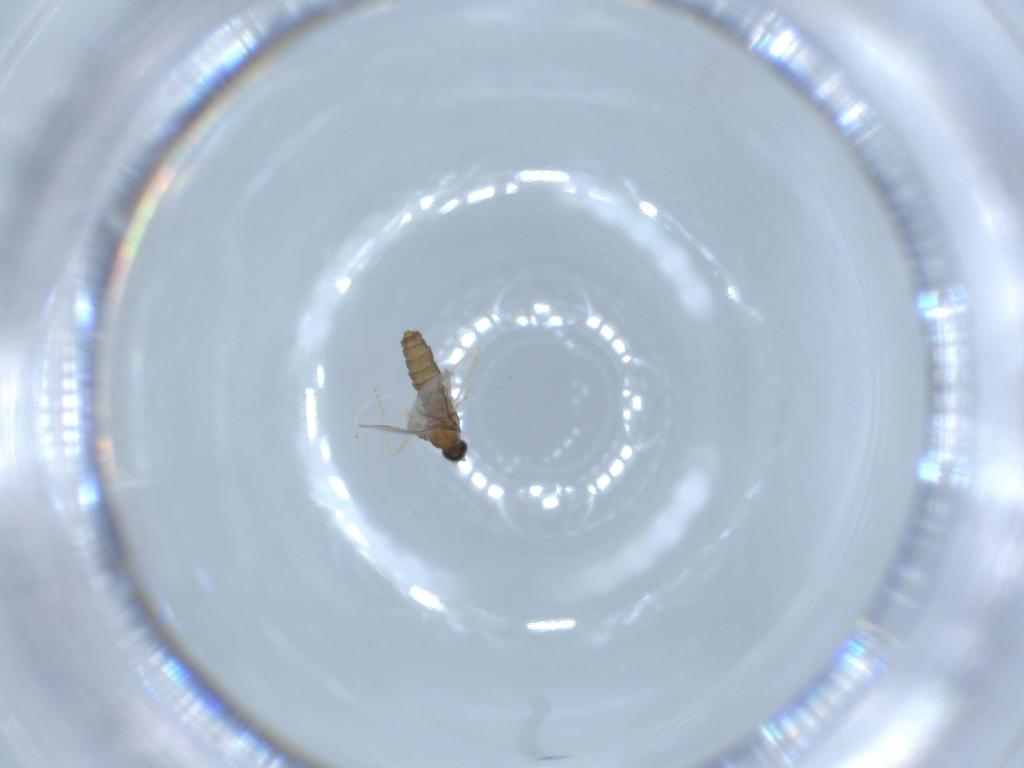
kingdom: Animalia
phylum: Arthropoda
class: Insecta
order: Diptera
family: Cecidomyiidae
